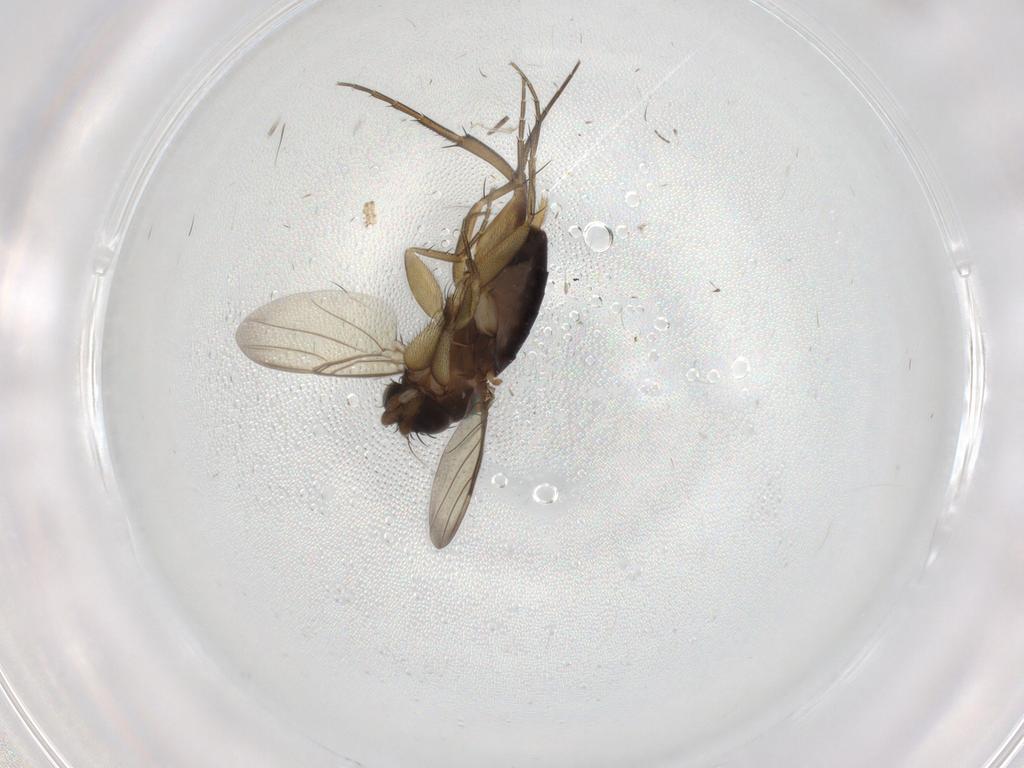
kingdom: Animalia
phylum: Arthropoda
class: Insecta
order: Diptera
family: Phoridae
